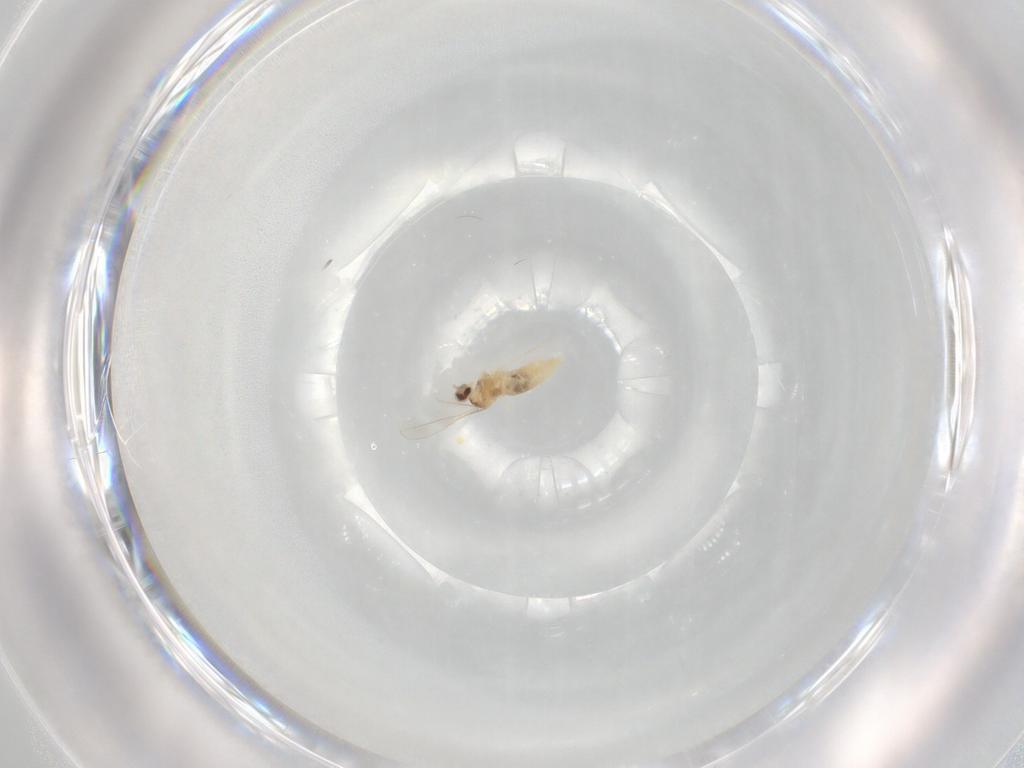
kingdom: Animalia
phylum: Arthropoda
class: Insecta
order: Diptera
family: Cecidomyiidae
